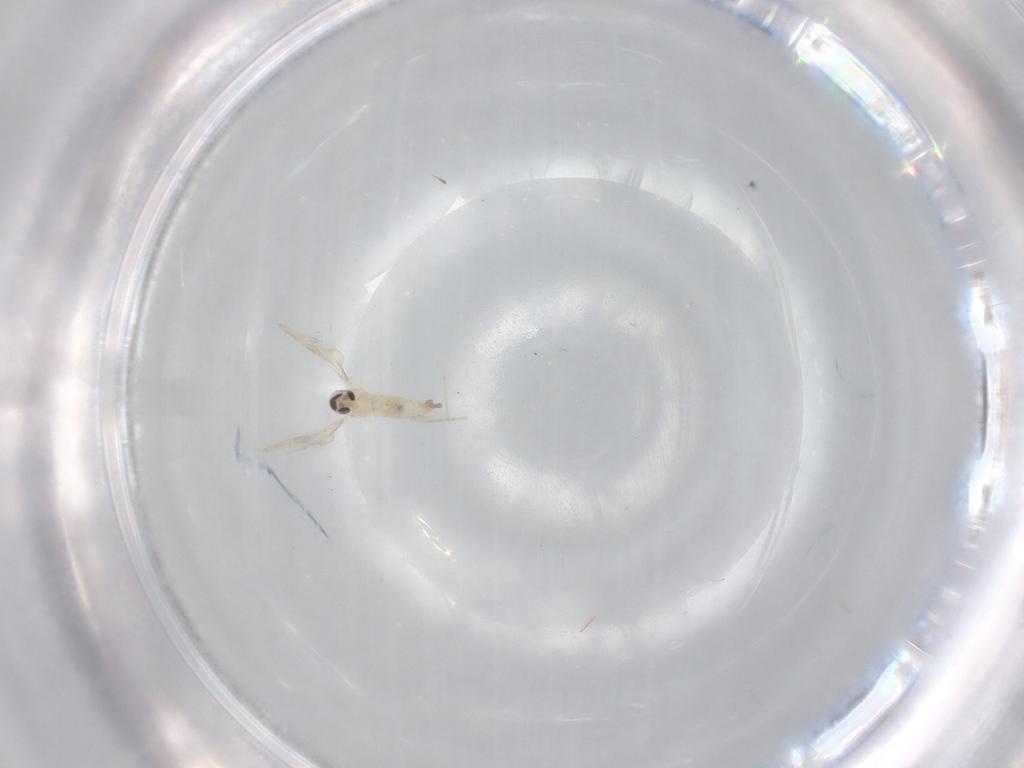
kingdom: Animalia
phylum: Arthropoda
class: Insecta
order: Diptera
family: Cecidomyiidae
